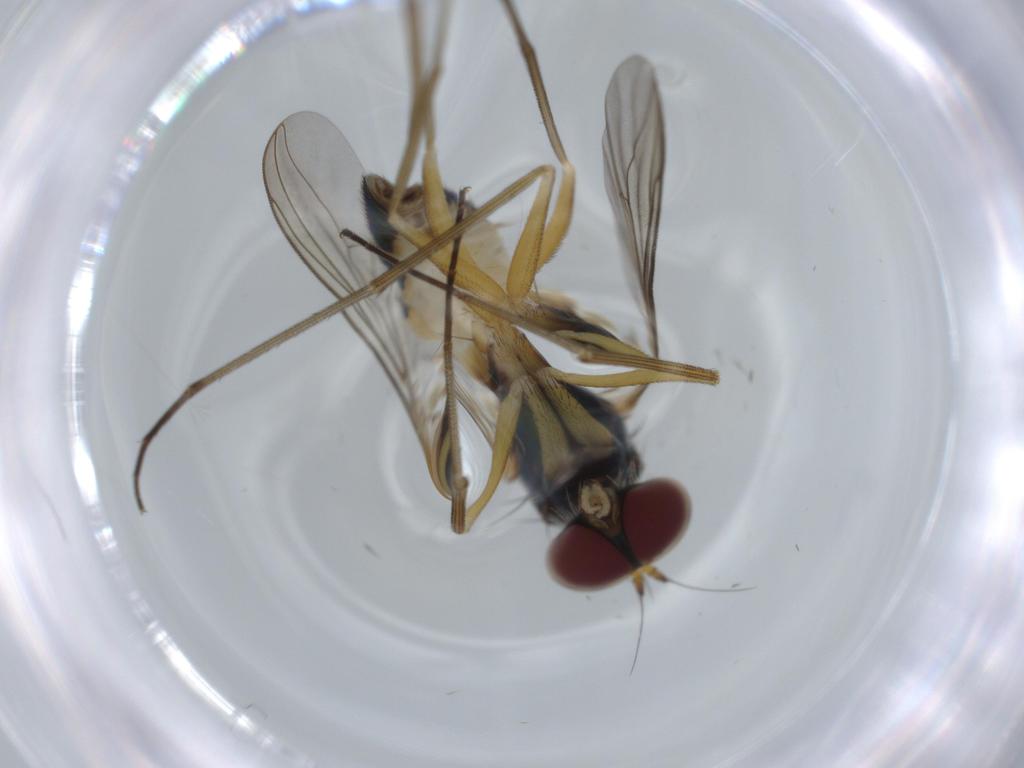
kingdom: Animalia
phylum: Arthropoda
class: Insecta
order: Diptera
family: Dolichopodidae
